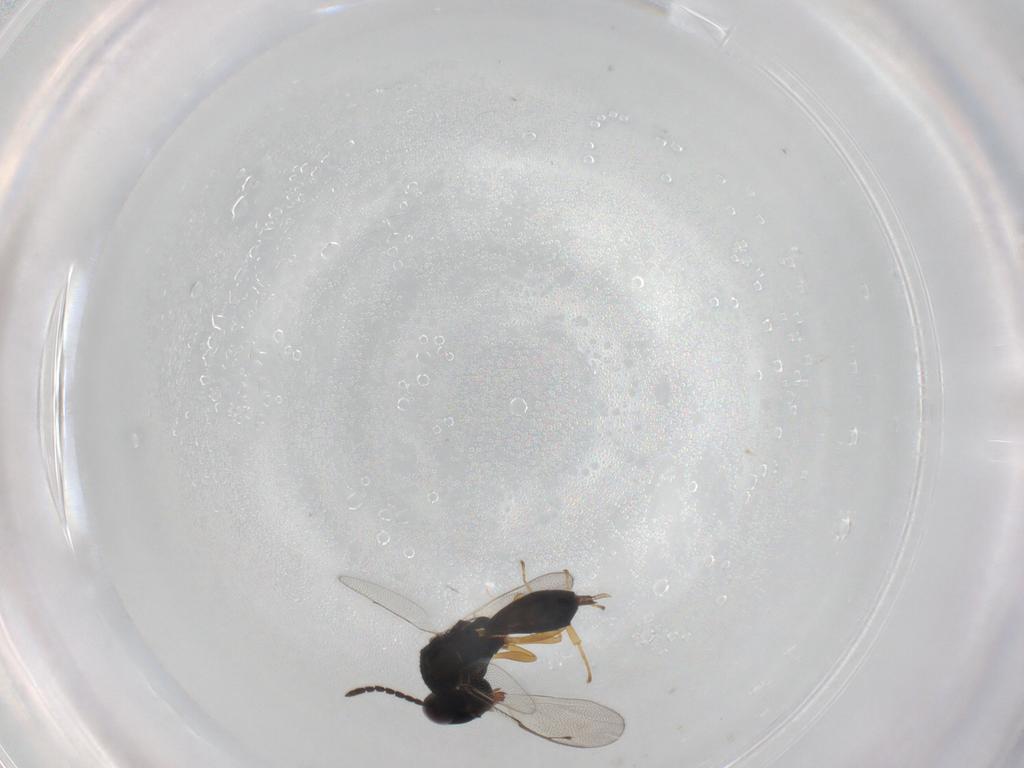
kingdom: Animalia
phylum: Arthropoda
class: Insecta
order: Hymenoptera
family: Pteromalidae
